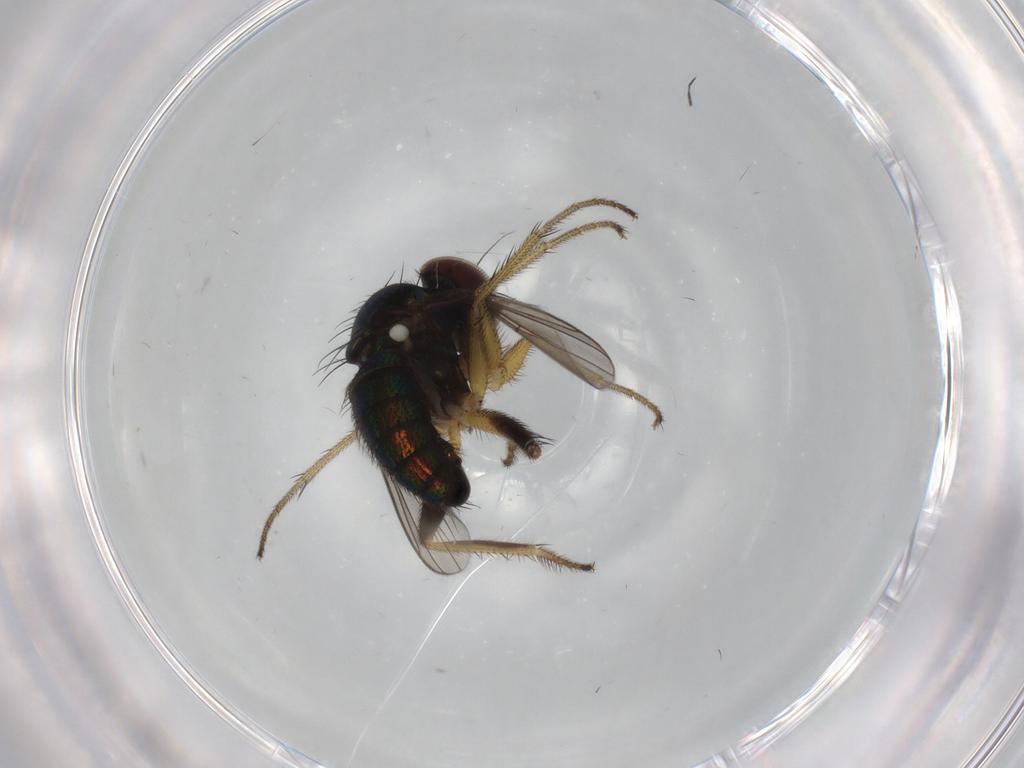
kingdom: Animalia
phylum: Arthropoda
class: Insecta
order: Diptera
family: Dolichopodidae
